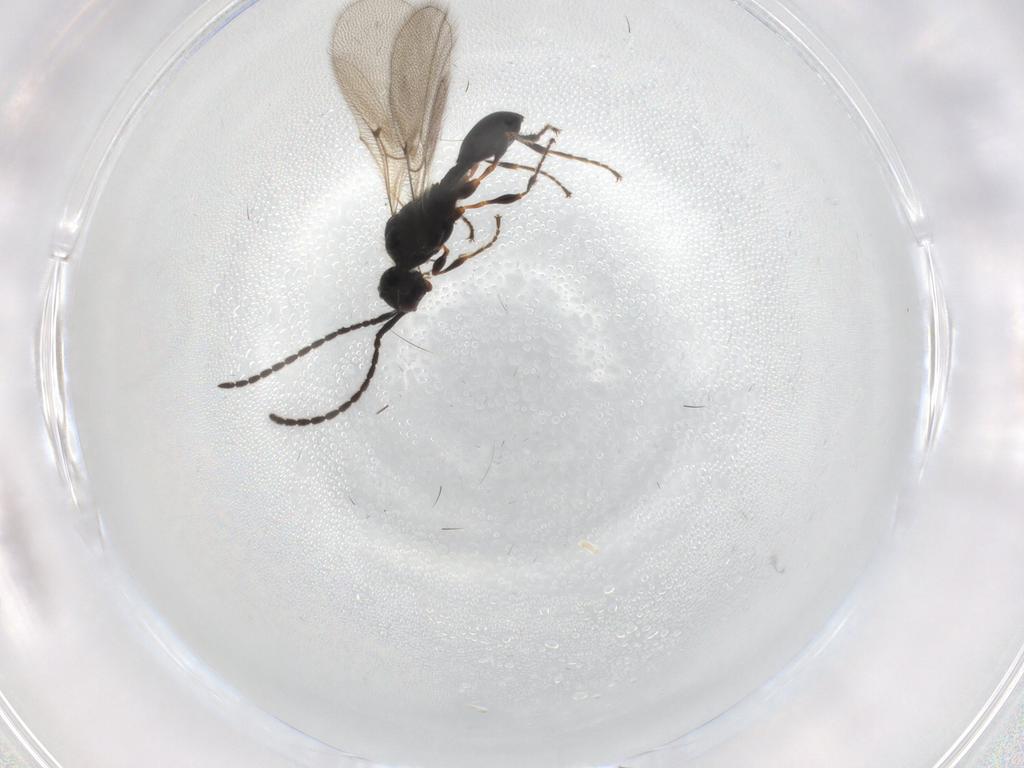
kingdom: Animalia
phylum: Arthropoda
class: Insecta
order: Hymenoptera
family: Diapriidae
